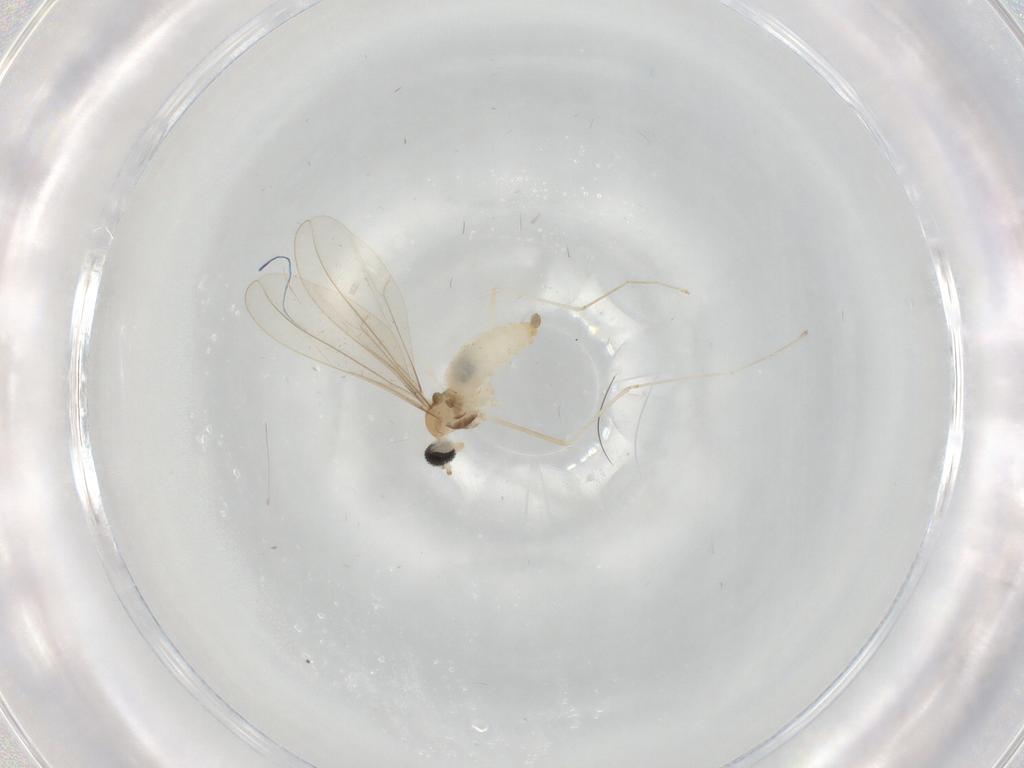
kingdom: Animalia
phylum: Arthropoda
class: Insecta
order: Diptera
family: Cecidomyiidae
